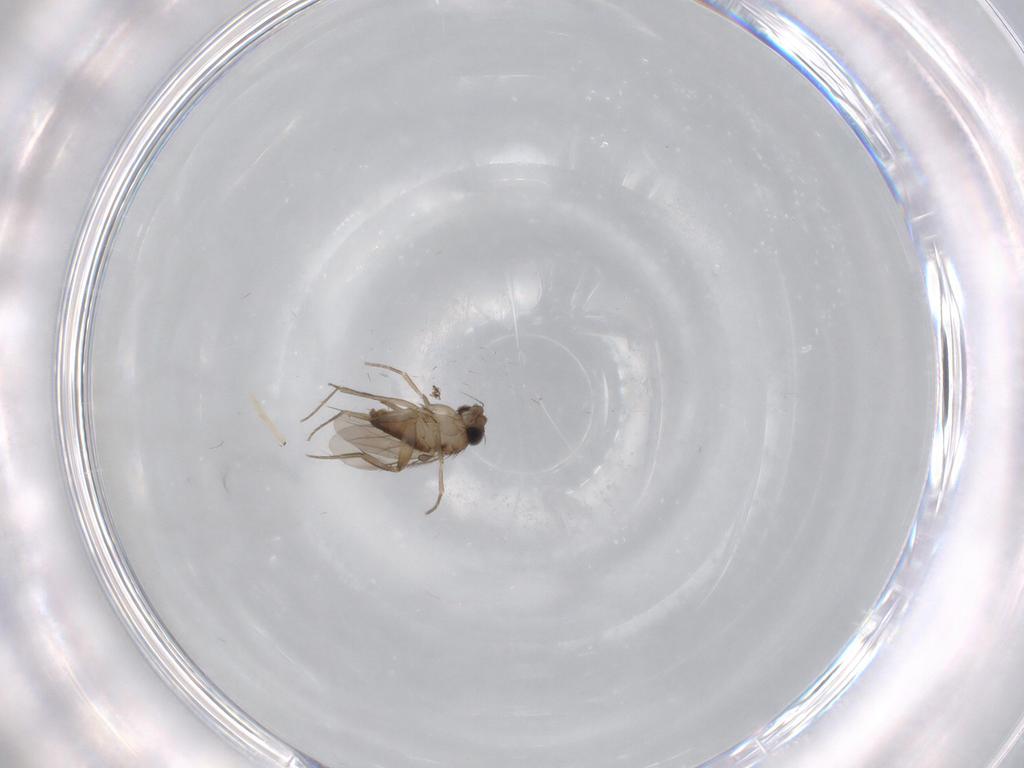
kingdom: Animalia
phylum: Arthropoda
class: Insecta
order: Diptera
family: Phoridae
